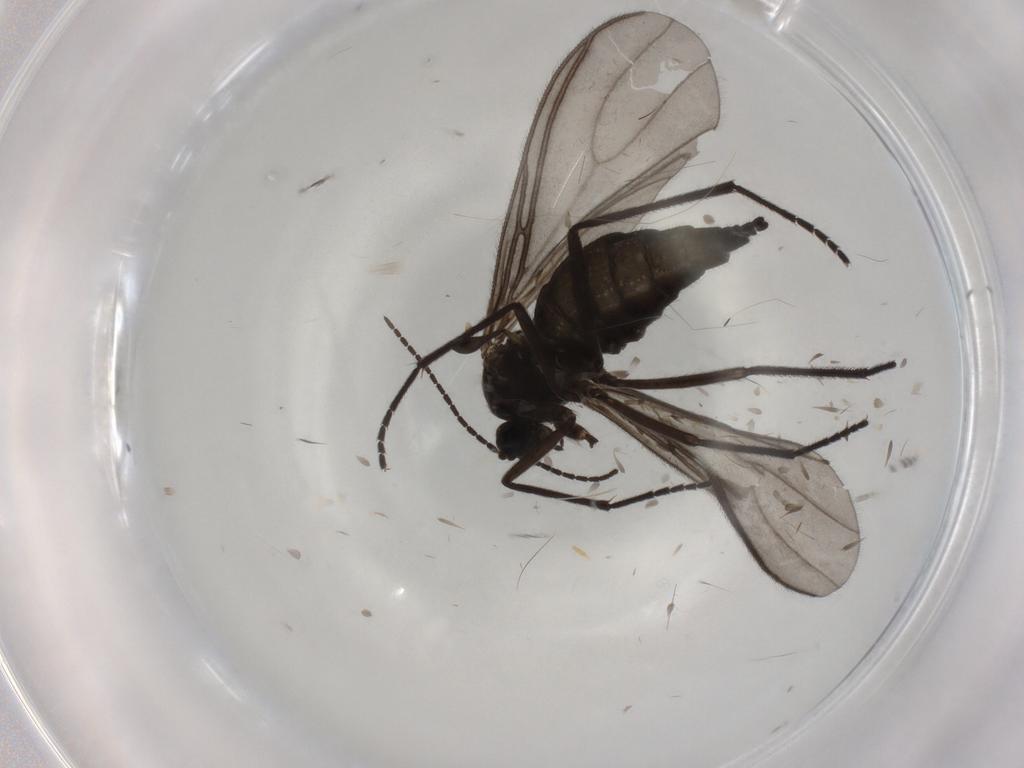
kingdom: Animalia
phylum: Arthropoda
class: Insecta
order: Diptera
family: Sciaridae
